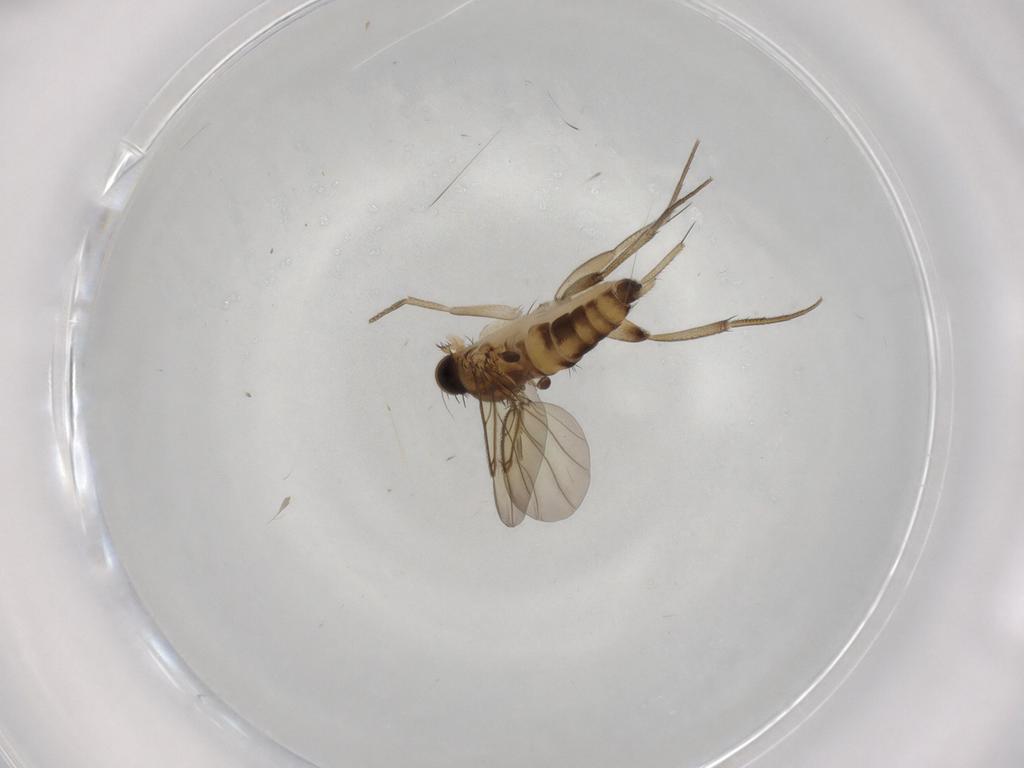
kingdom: Animalia
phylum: Arthropoda
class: Insecta
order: Diptera
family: Phoridae
